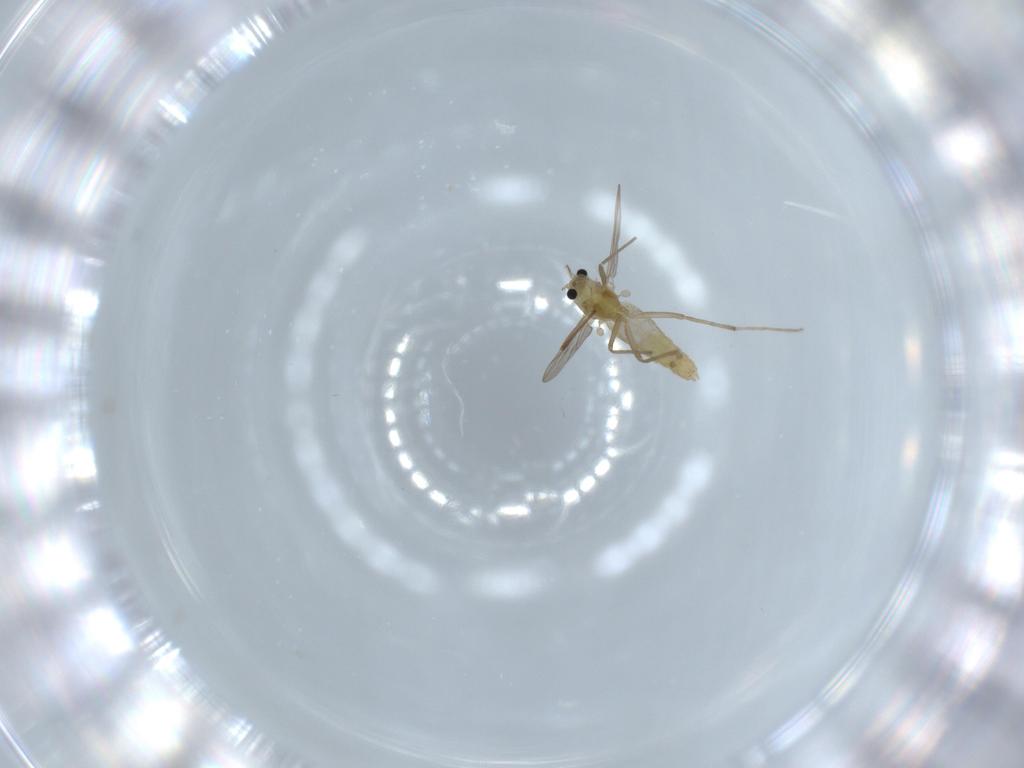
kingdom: Animalia
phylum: Arthropoda
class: Insecta
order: Diptera
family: Chironomidae
